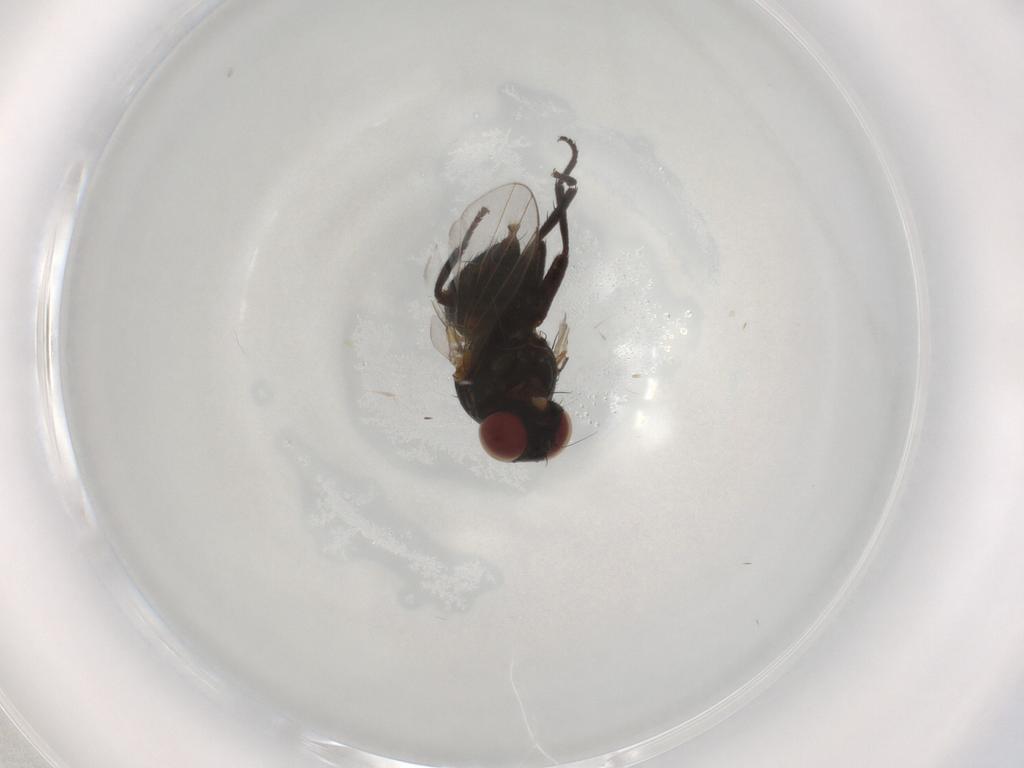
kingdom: Animalia
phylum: Arthropoda
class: Insecta
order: Diptera
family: Agromyzidae
